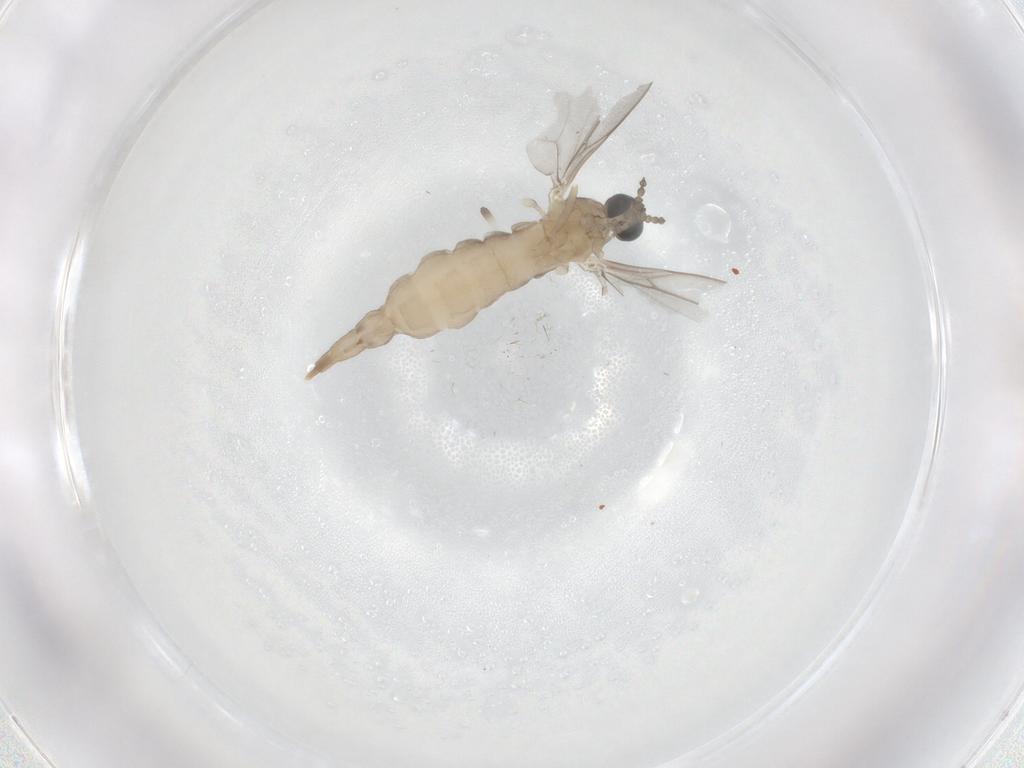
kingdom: Animalia
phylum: Arthropoda
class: Insecta
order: Diptera
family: Cecidomyiidae
